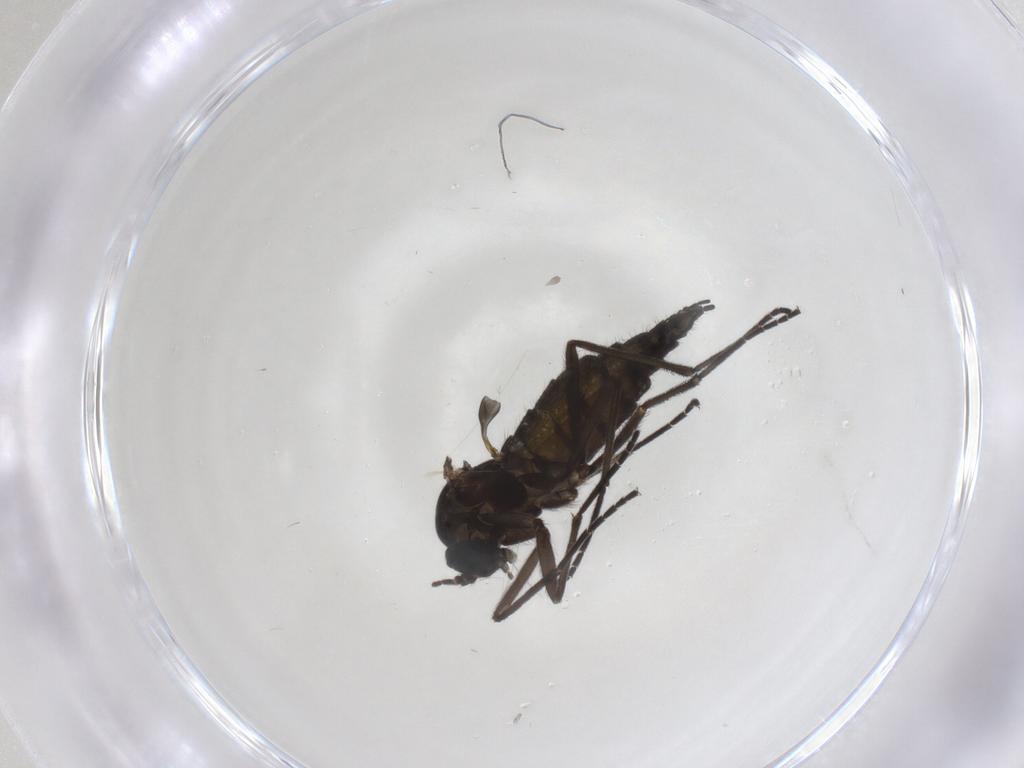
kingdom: Animalia
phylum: Arthropoda
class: Insecta
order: Diptera
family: Sciaridae
